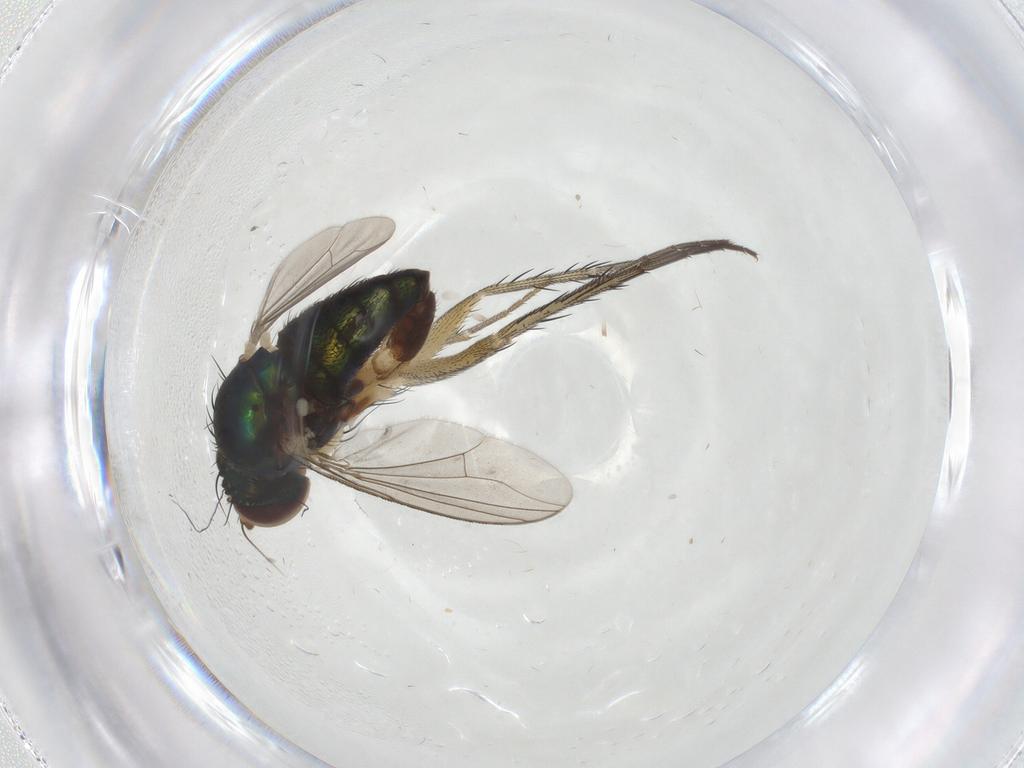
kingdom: Animalia
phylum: Arthropoda
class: Insecta
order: Diptera
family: Dolichopodidae
